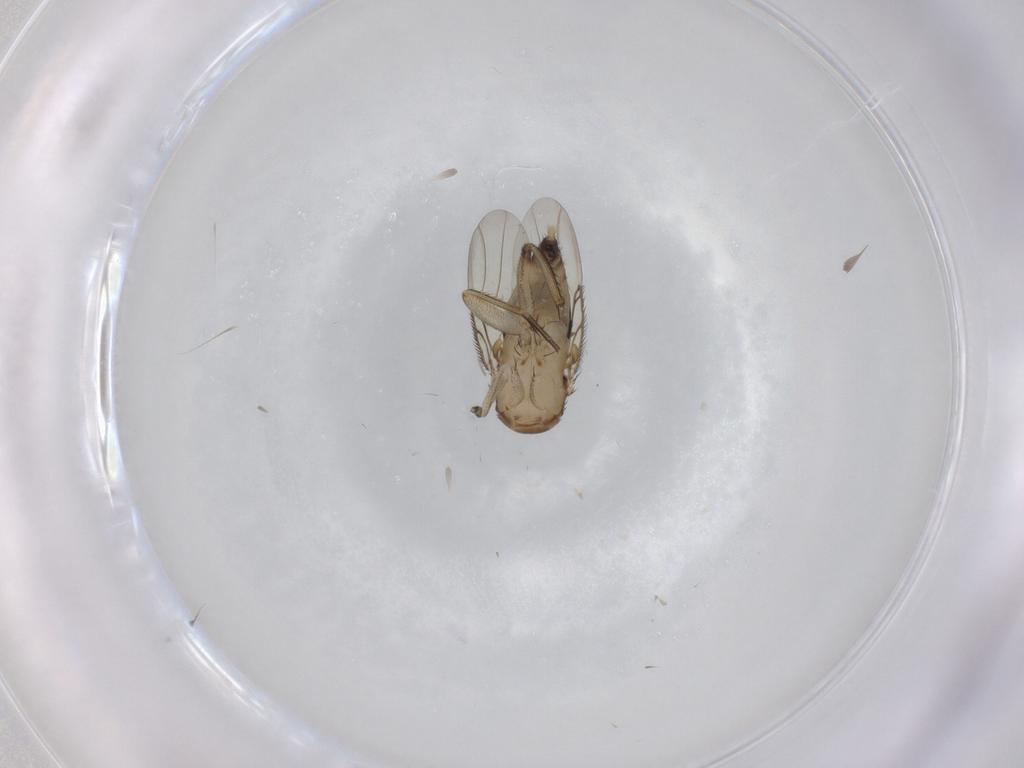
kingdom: Animalia
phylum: Arthropoda
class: Insecta
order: Diptera
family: Phoridae
